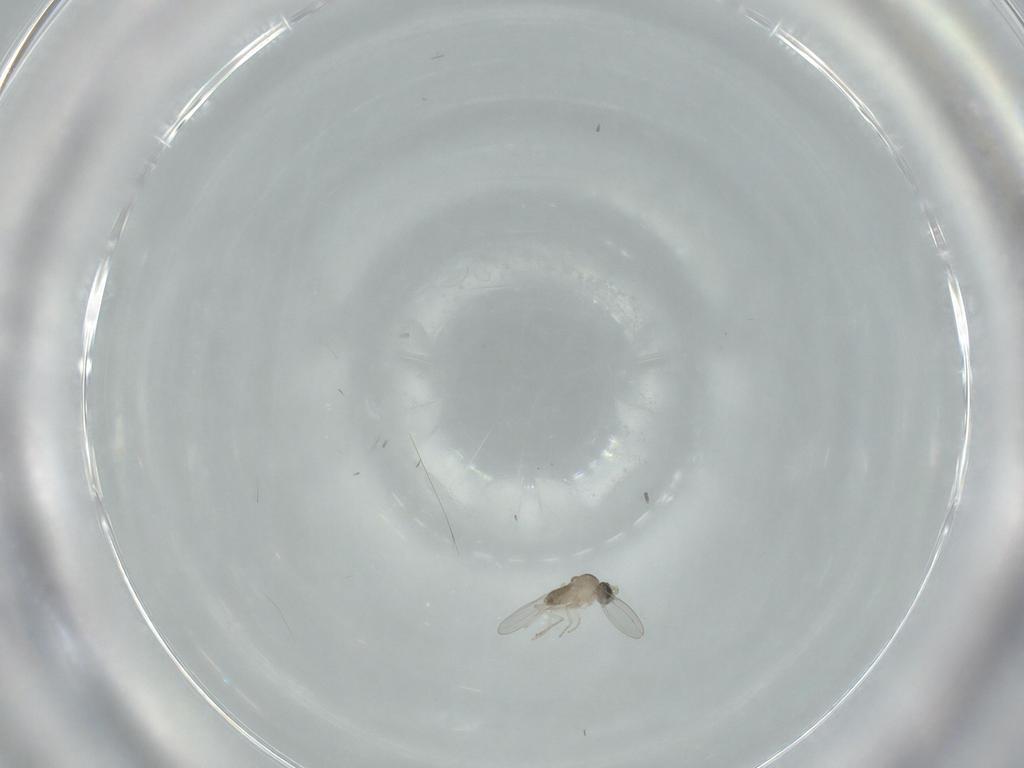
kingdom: Animalia
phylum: Arthropoda
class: Insecta
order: Diptera
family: Cecidomyiidae
